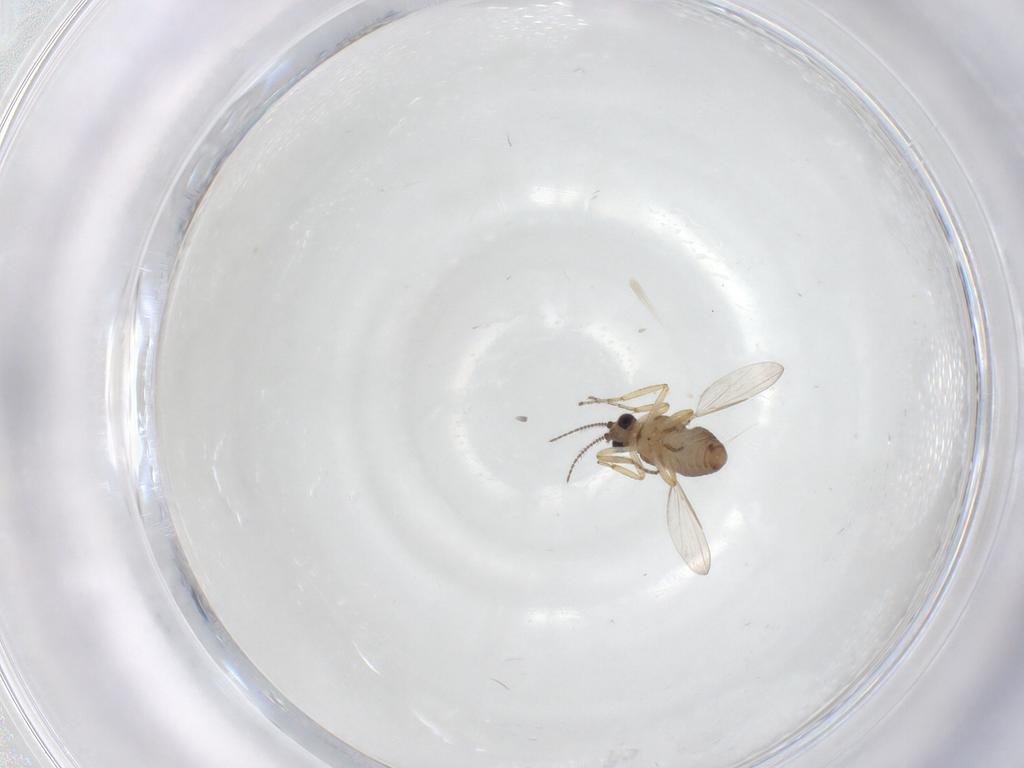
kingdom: Animalia
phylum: Arthropoda
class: Insecta
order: Diptera
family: Ceratopogonidae
